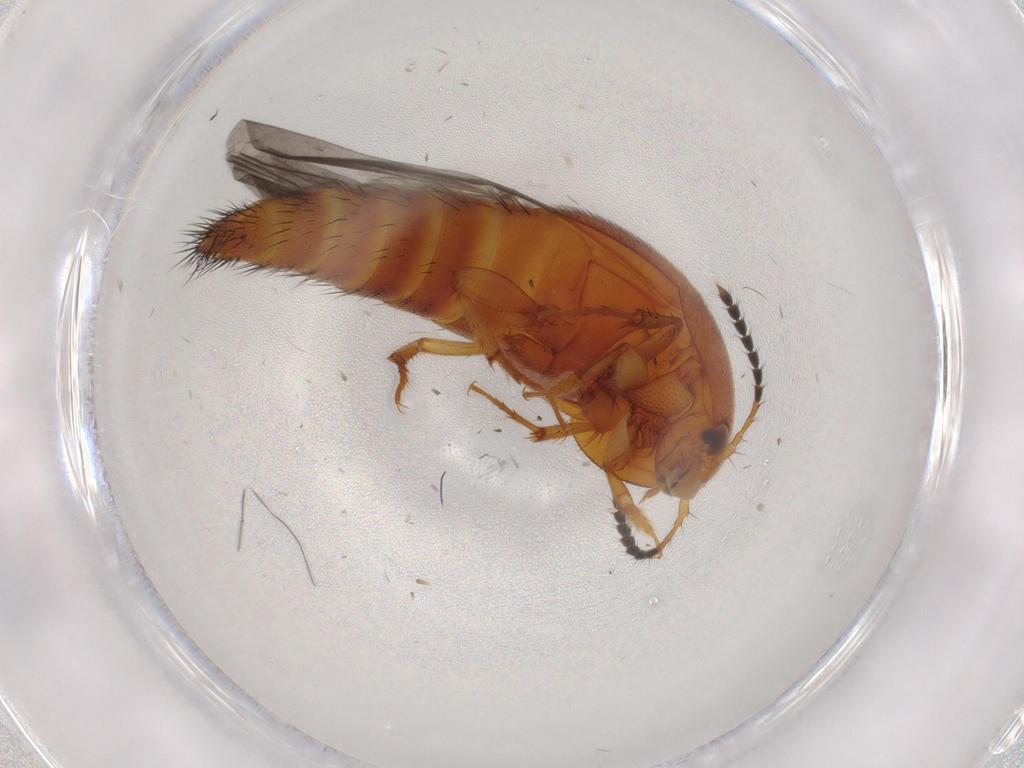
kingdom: Animalia
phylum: Arthropoda
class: Insecta
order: Coleoptera
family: Staphylinidae
